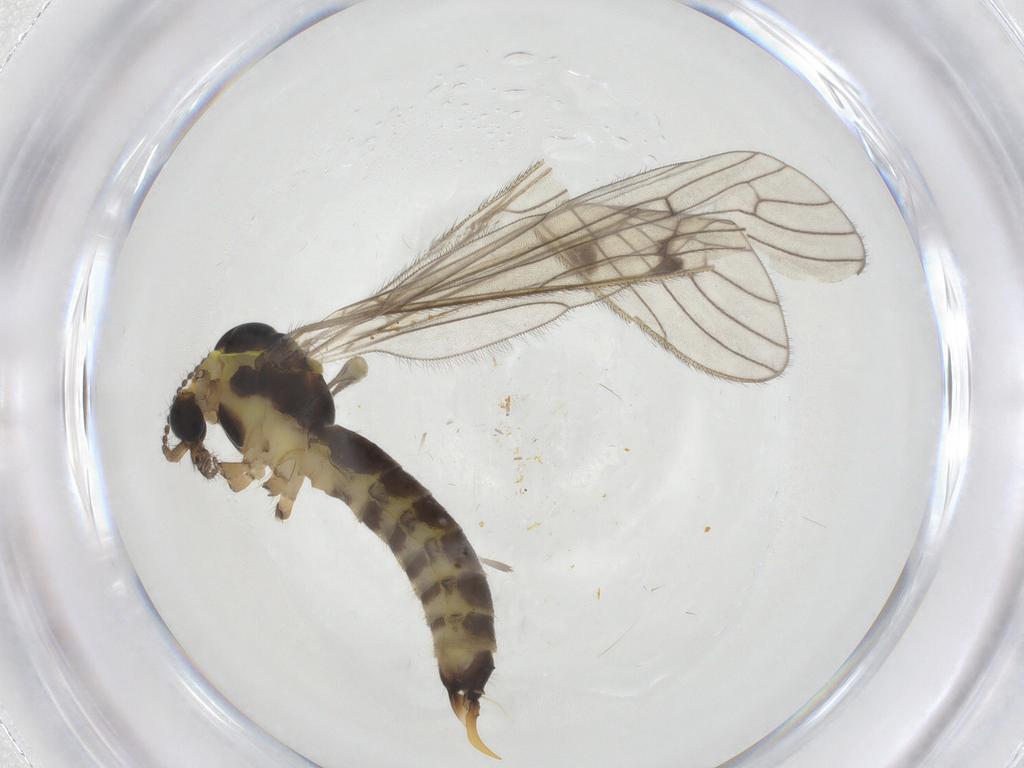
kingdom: Animalia
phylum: Arthropoda
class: Insecta
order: Diptera
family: Limoniidae
